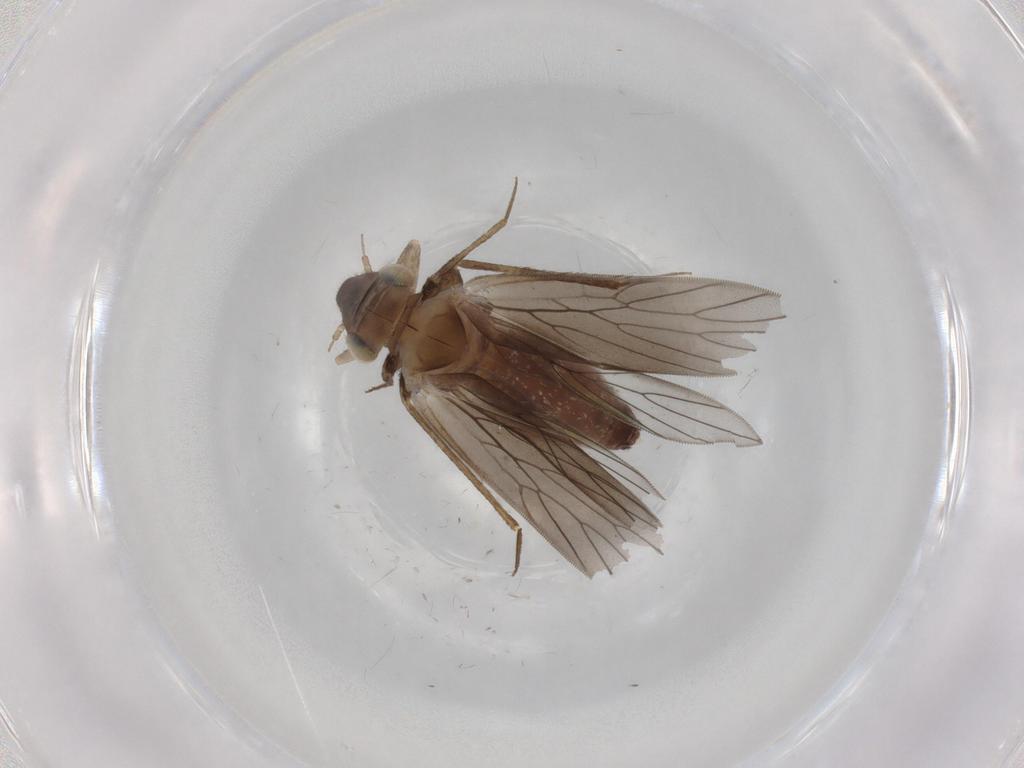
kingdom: Animalia
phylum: Arthropoda
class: Insecta
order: Psocodea
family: Lepidopsocidae
